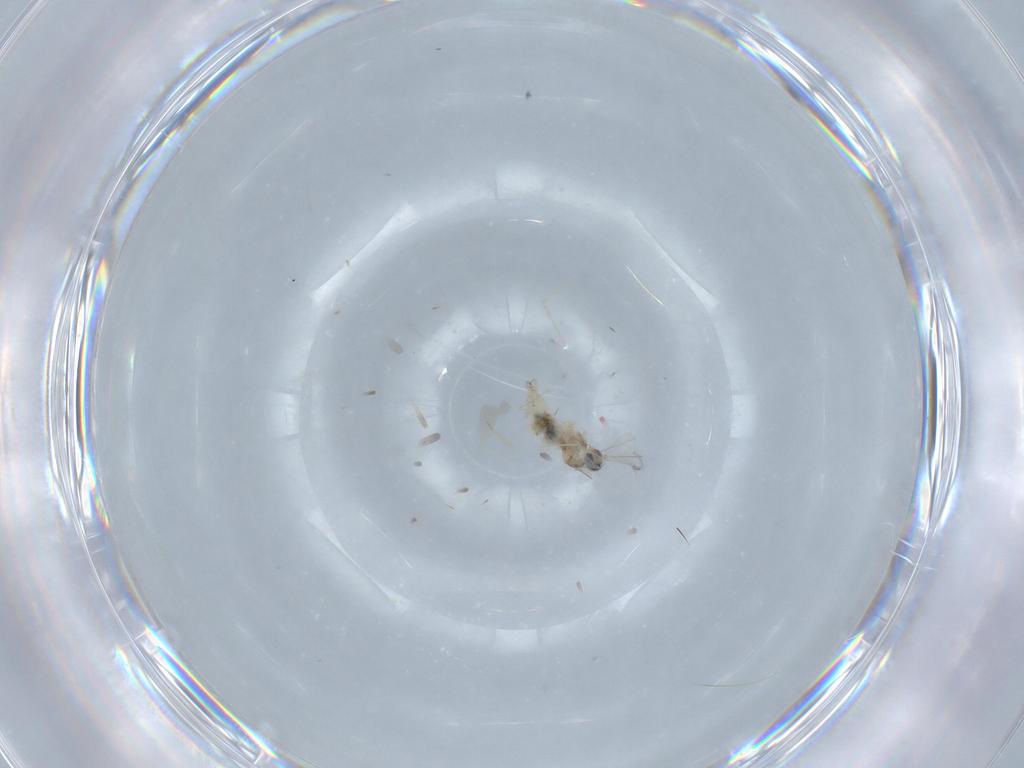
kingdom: Animalia
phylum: Arthropoda
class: Insecta
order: Diptera
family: Cecidomyiidae
